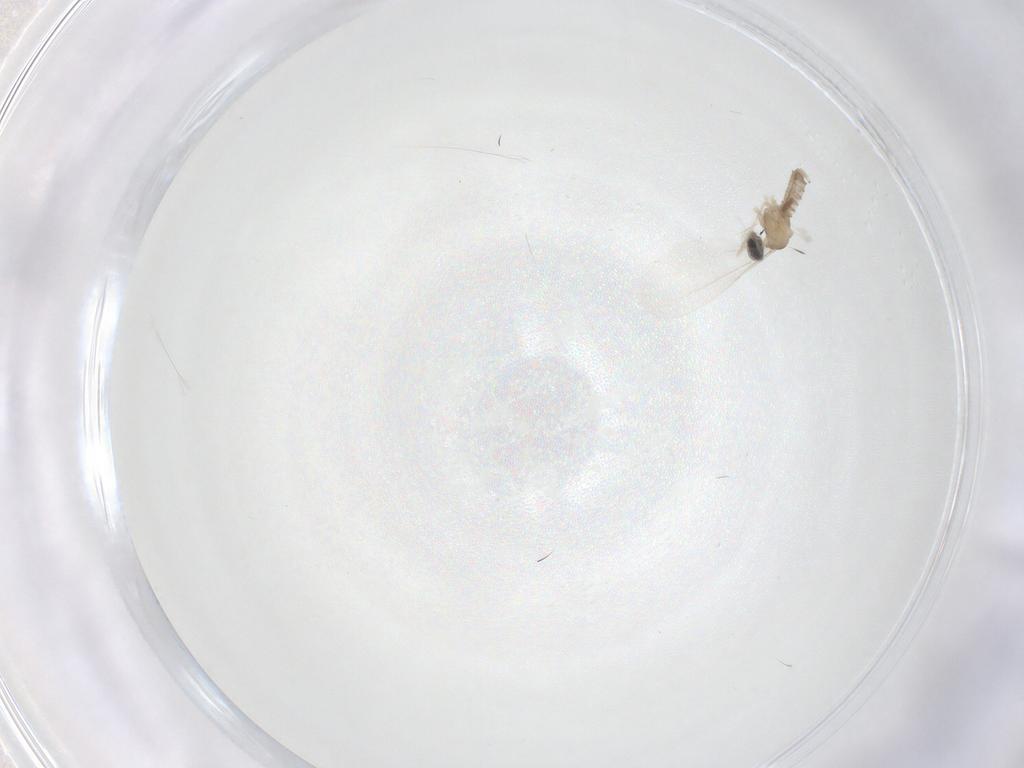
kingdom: Animalia
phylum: Arthropoda
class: Insecta
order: Diptera
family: Cecidomyiidae
